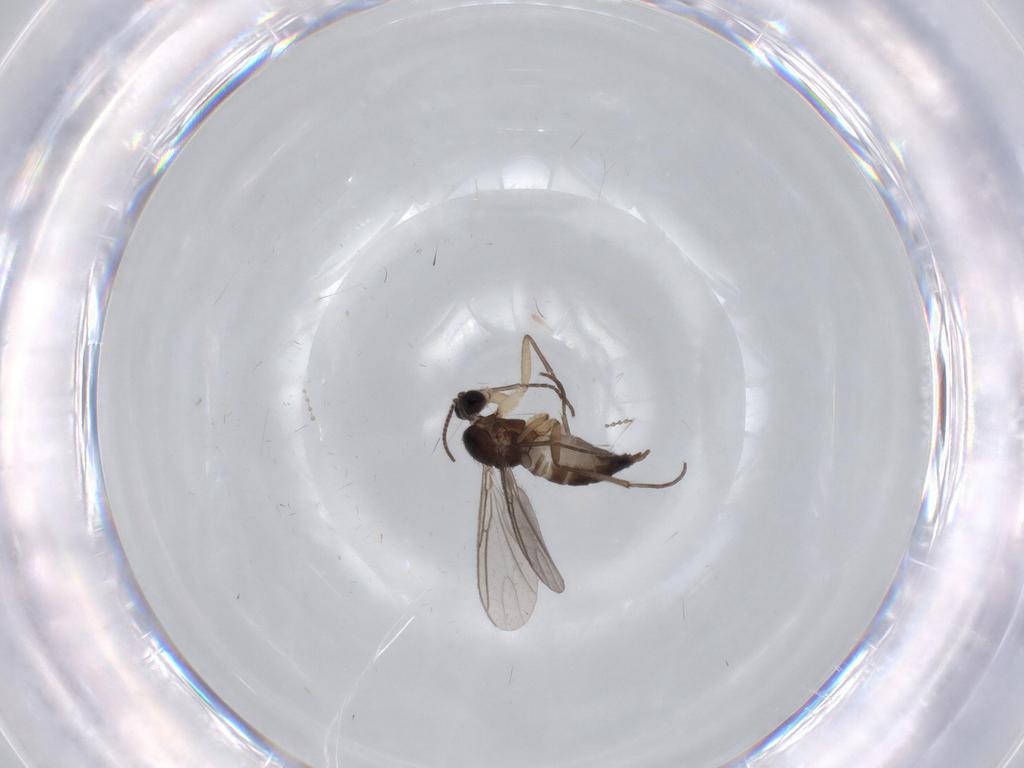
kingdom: Animalia
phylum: Arthropoda
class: Insecta
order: Diptera
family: Sciaridae
